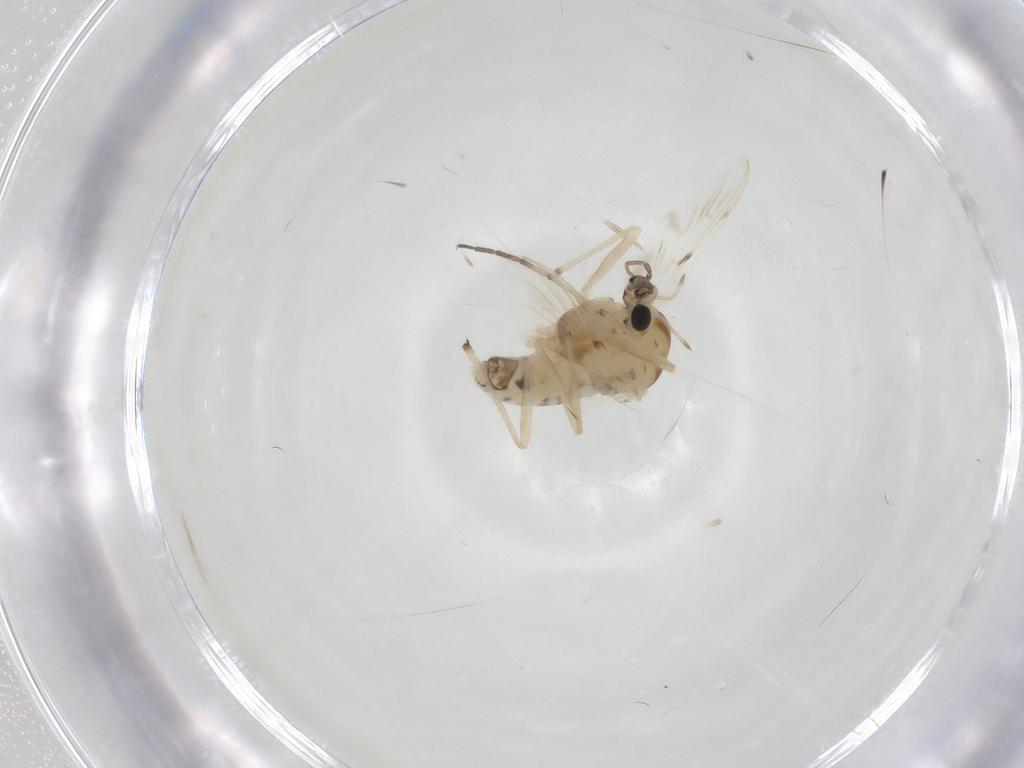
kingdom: Animalia
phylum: Arthropoda
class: Insecta
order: Diptera
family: Chironomidae
